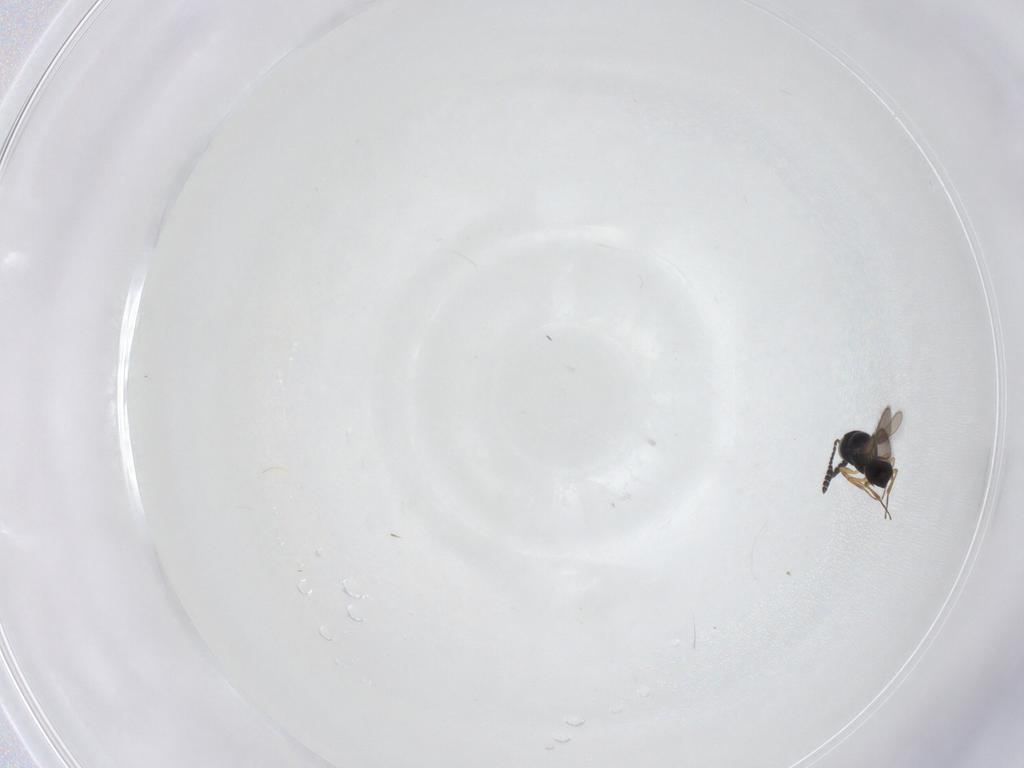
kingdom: Animalia
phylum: Arthropoda
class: Insecta
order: Hymenoptera
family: Scelionidae
